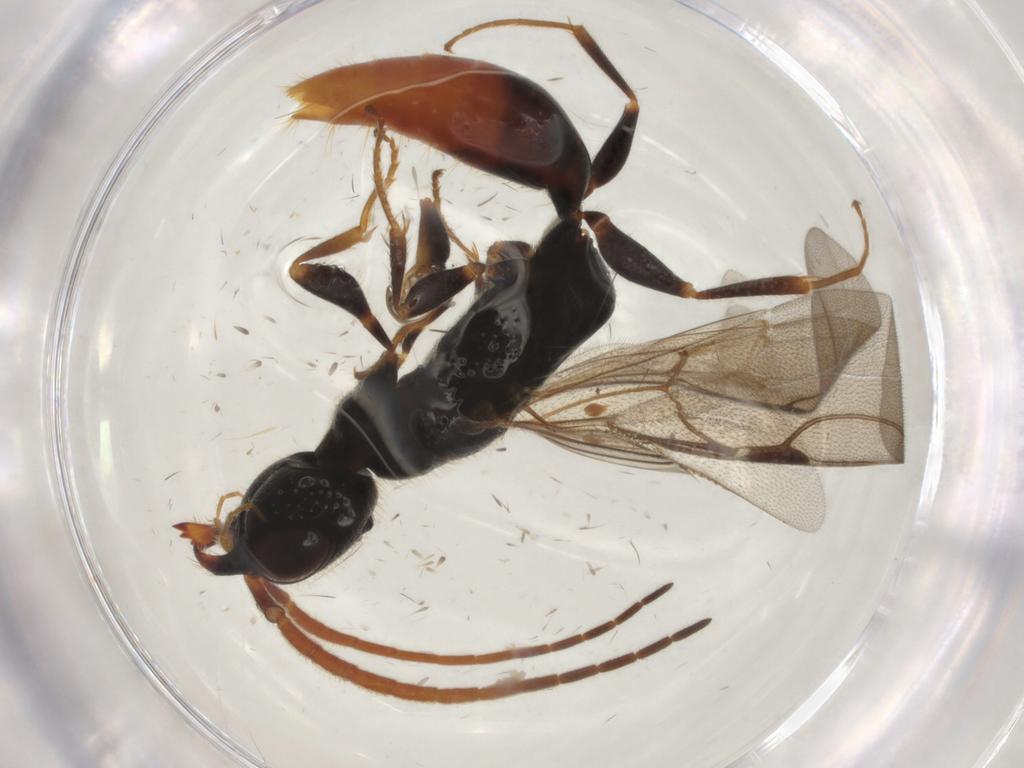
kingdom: Animalia
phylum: Arthropoda
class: Insecta
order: Hymenoptera
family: Bethylidae
